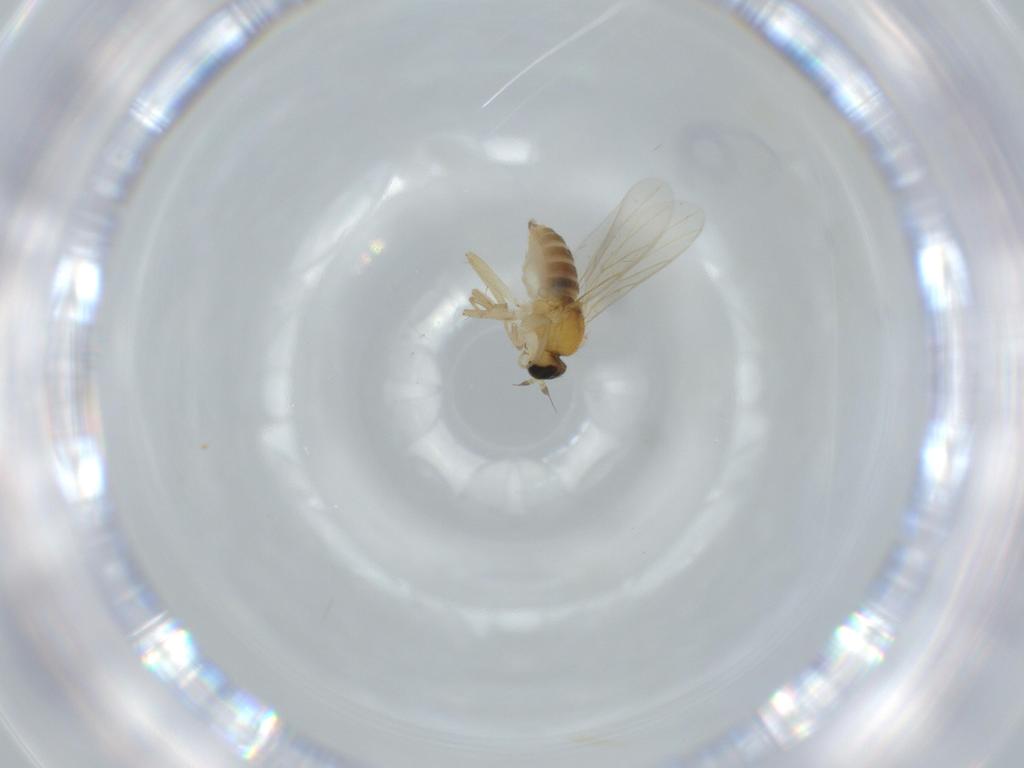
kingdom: Animalia
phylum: Arthropoda
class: Insecta
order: Diptera
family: Hybotidae
